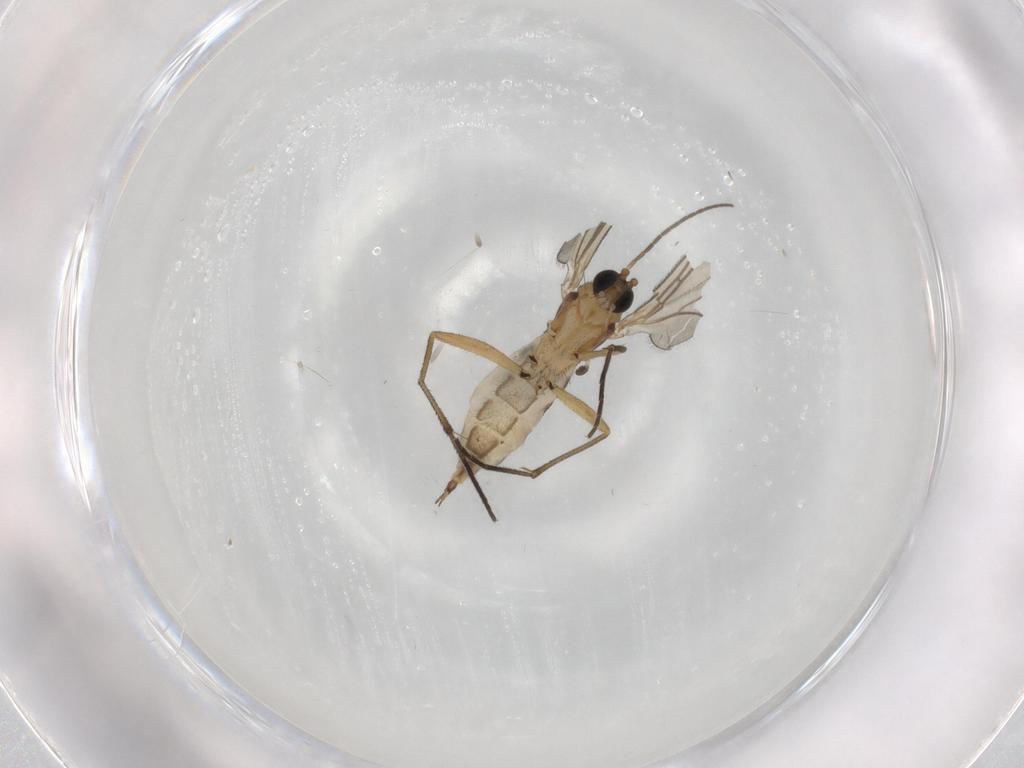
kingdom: Animalia
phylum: Arthropoda
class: Insecta
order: Diptera
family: Sciaridae
